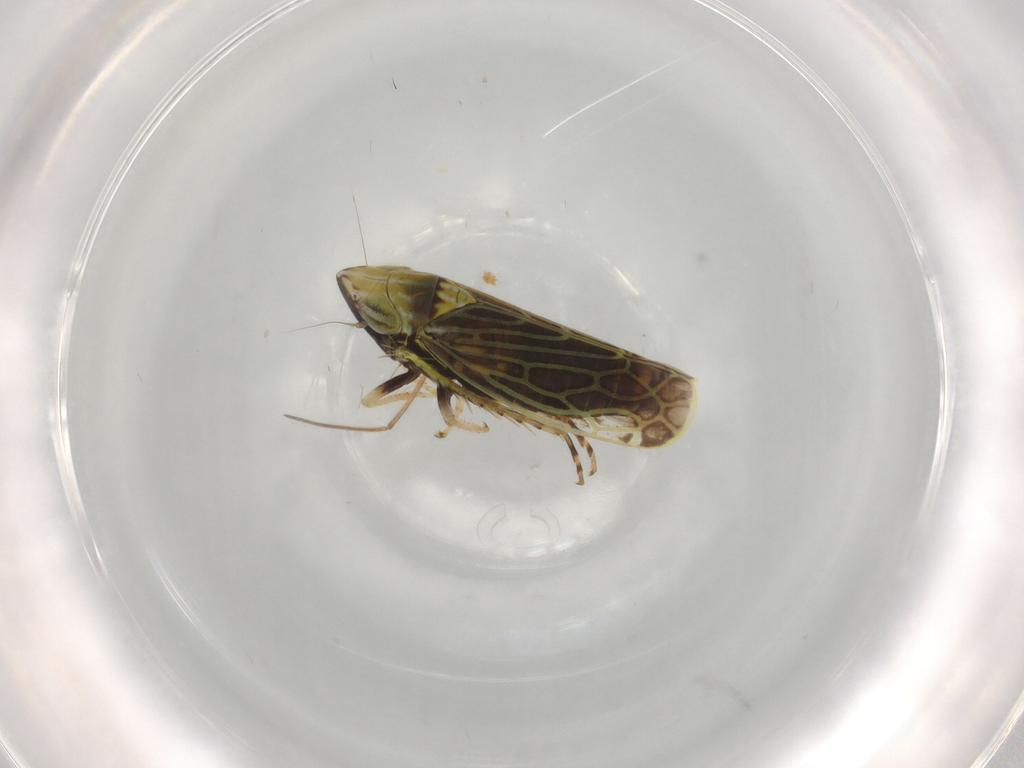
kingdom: Animalia
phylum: Arthropoda
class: Insecta
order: Hemiptera
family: Cicadellidae
